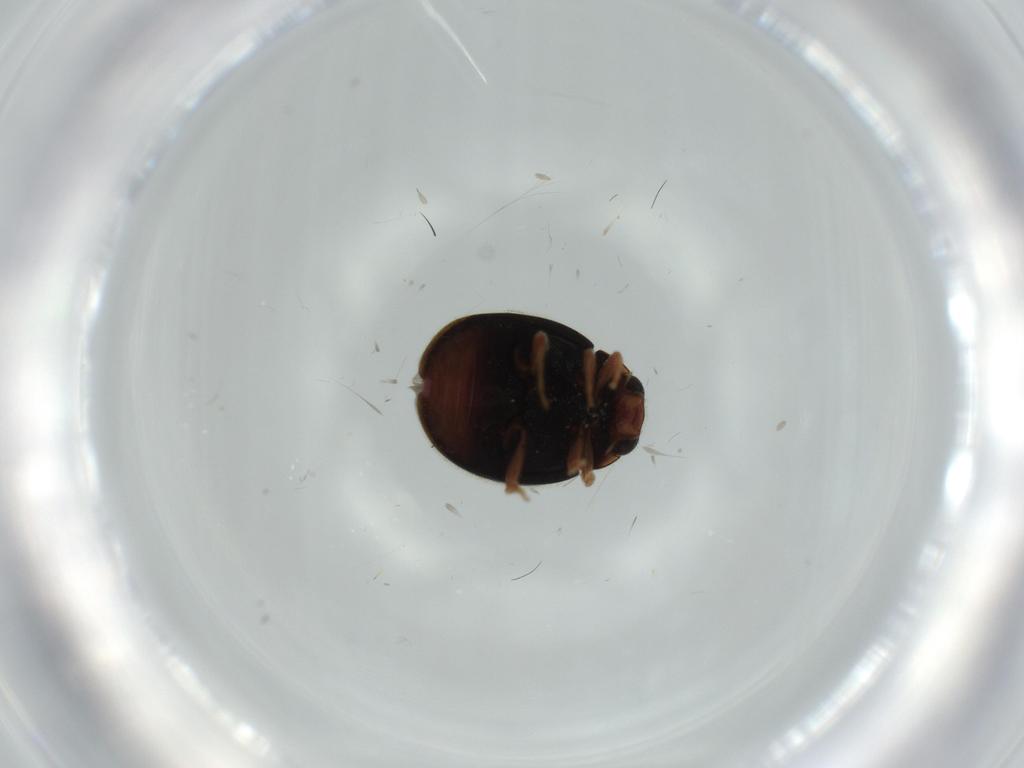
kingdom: Animalia
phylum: Arthropoda
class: Insecta
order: Coleoptera
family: Coccinellidae
